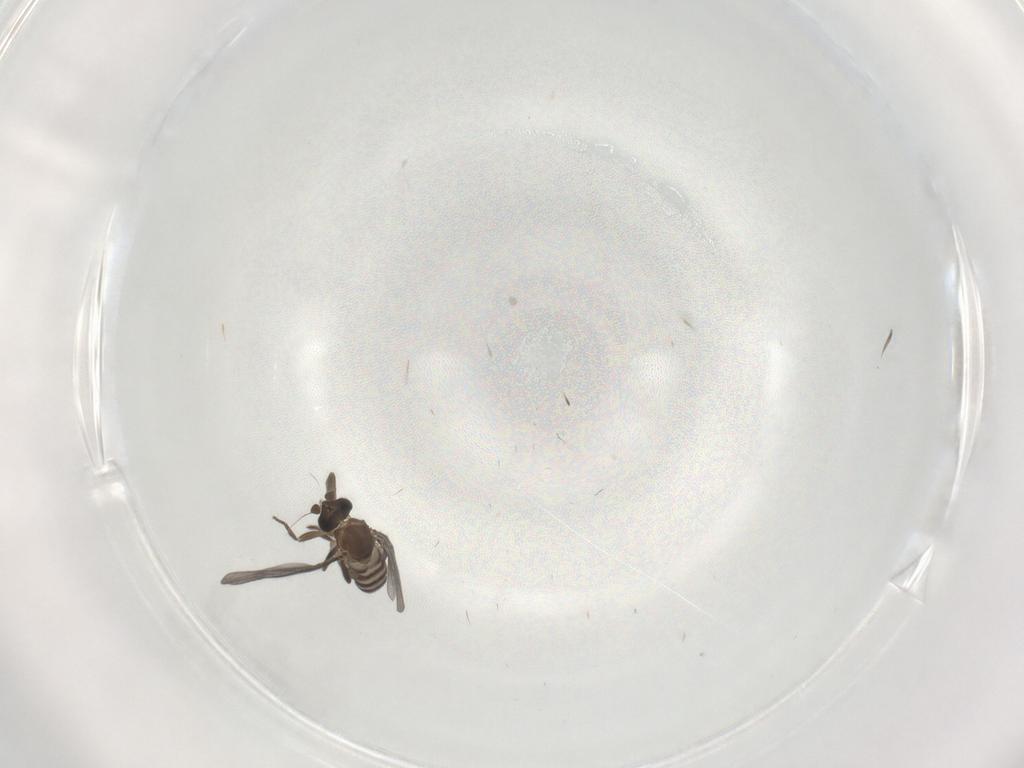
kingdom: Animalia
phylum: Arthropoda
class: Insecta
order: Diptera
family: Phoridae
